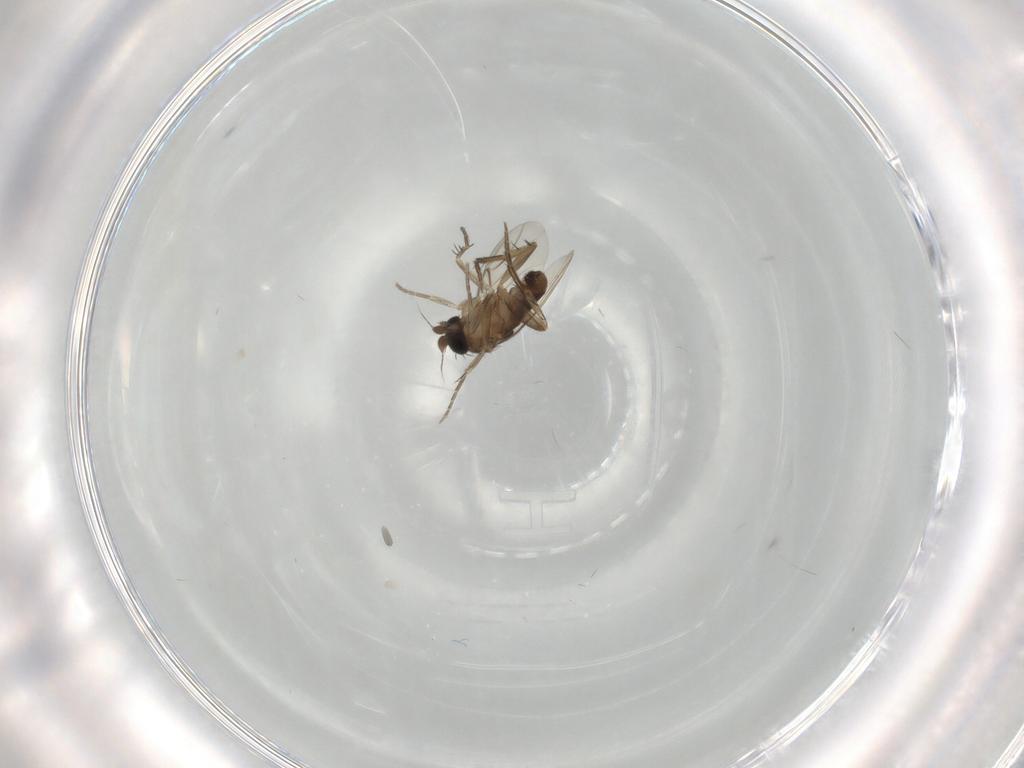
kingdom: Animalia
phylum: Arthropoda
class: Insecta
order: Diptera
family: Phoridae
